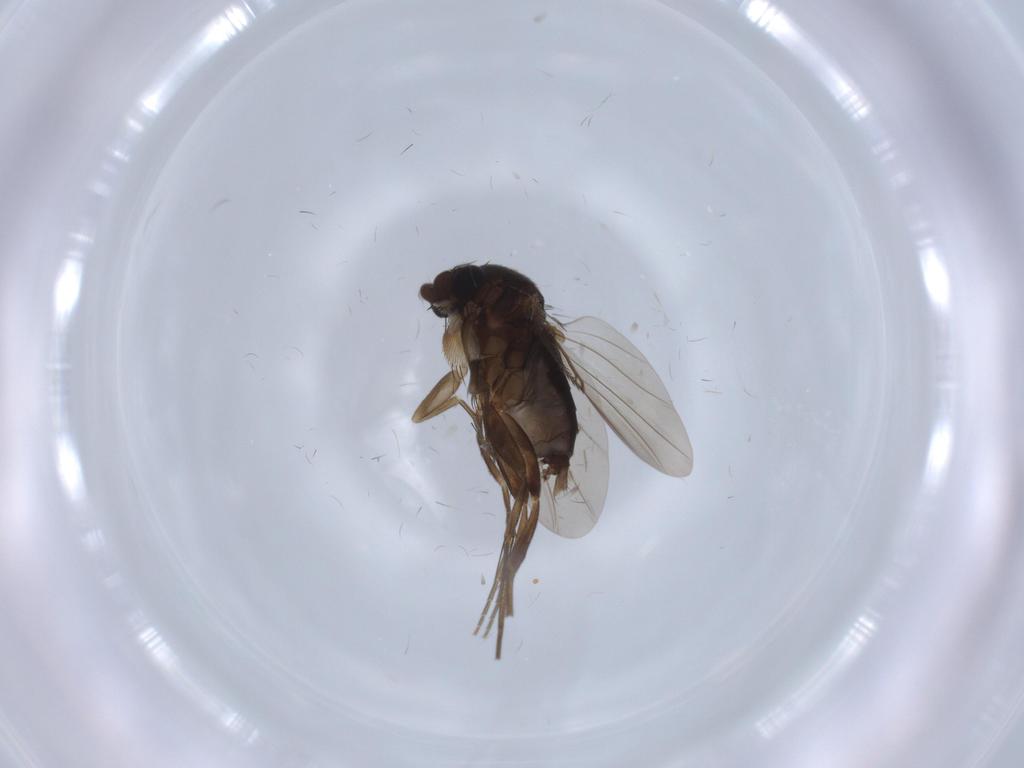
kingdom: Animalia
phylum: Arthropoda
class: Insecta
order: Diptera
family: Phoridae
